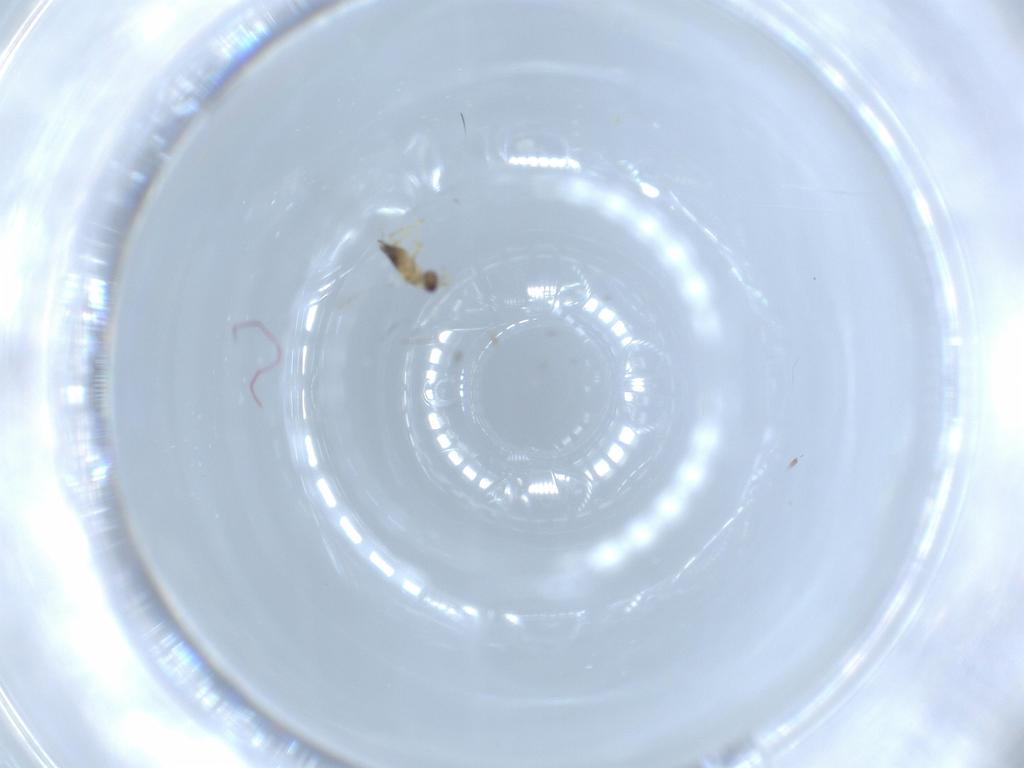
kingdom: Animalia
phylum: Arthropoda
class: Insecta
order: Hymenoptera
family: Mymaridae
